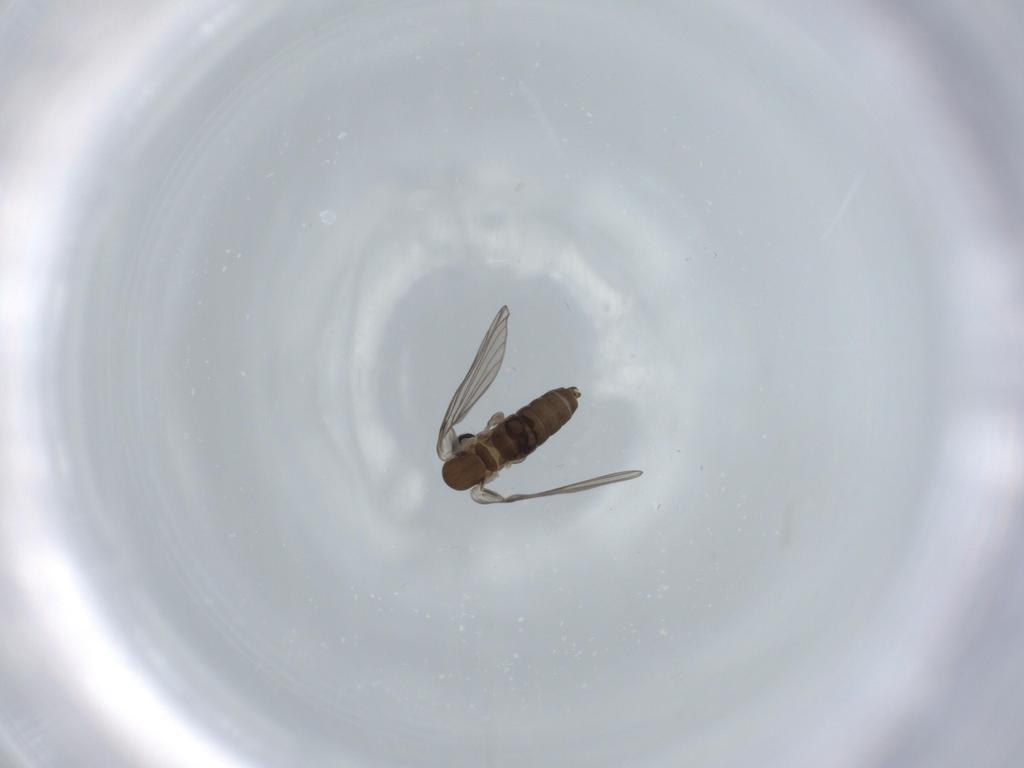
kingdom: Animalia
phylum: Arthropoda
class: Insecta
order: Diptera
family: Psychodidae
